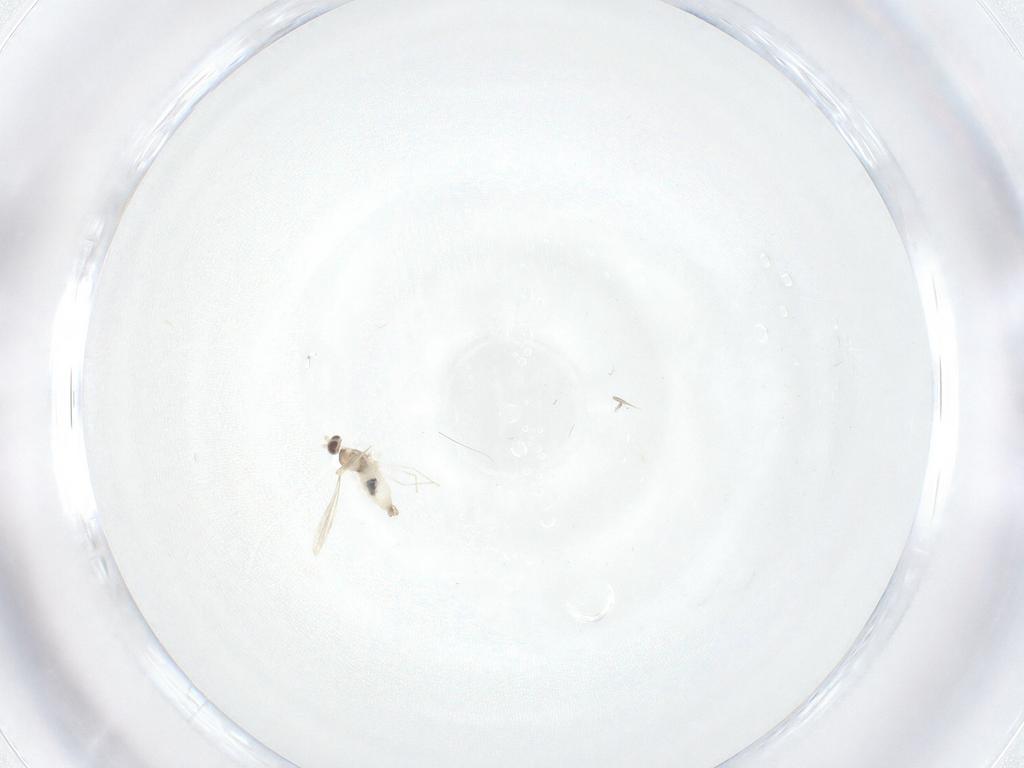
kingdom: Animalia
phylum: Arthropoda
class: Insecta
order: Diptera
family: Cecidomyiidae
